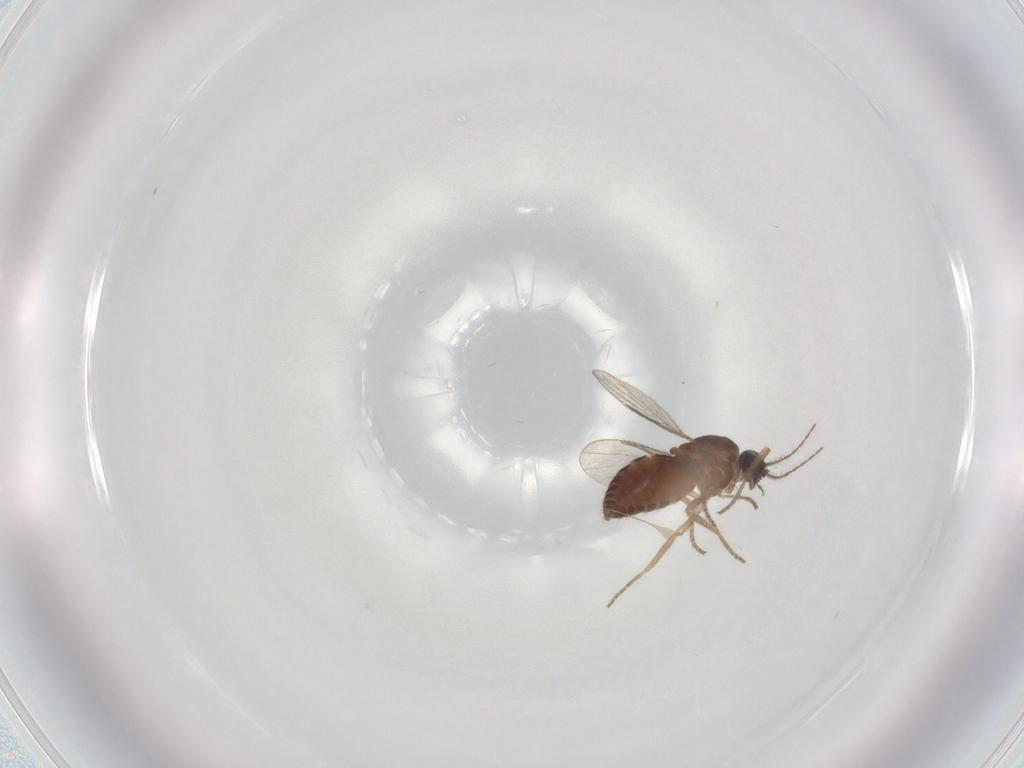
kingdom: Animalia
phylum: Arthropoda
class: Insecta
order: Diptera
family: Ceratopogonidae
